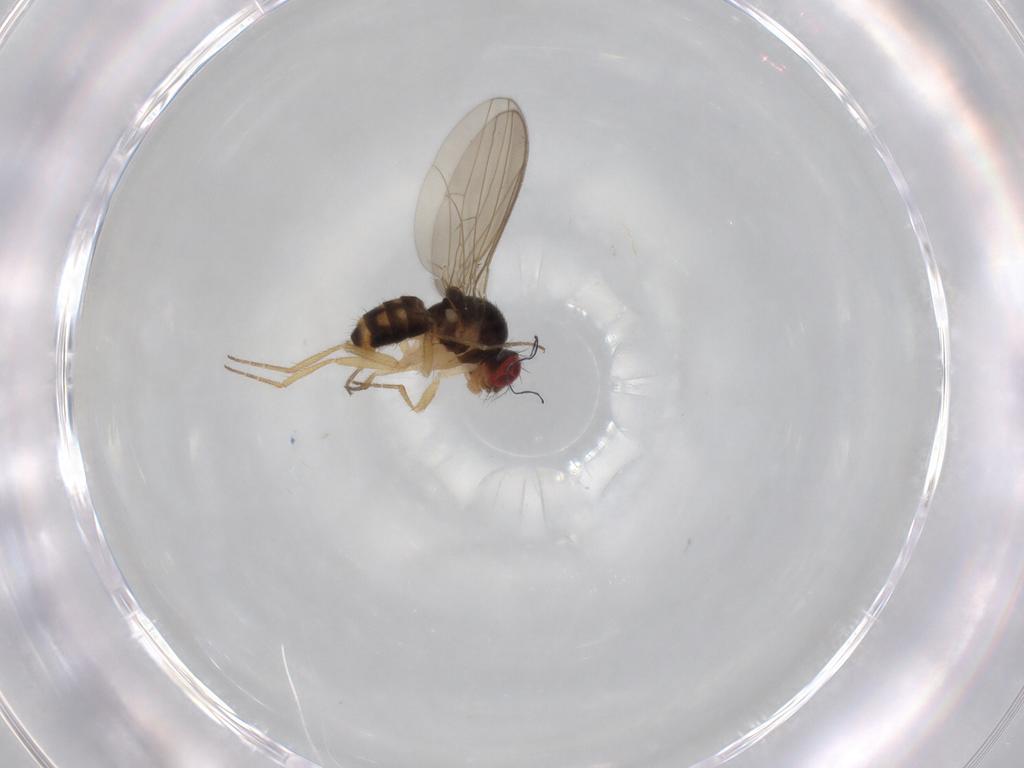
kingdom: Animalia
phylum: Arthropoda
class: Insecta
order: Diptera
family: Drosophilidae
